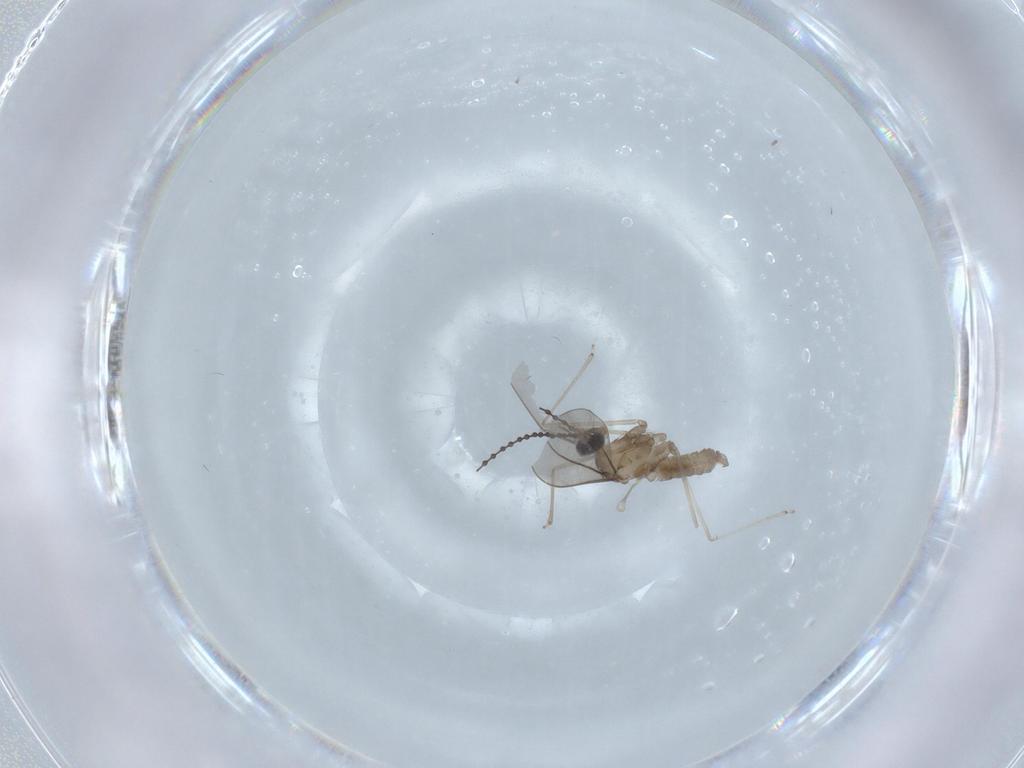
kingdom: Animalia
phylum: Arthropoda
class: Insecta
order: Diptera
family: Cecidomyiidae
